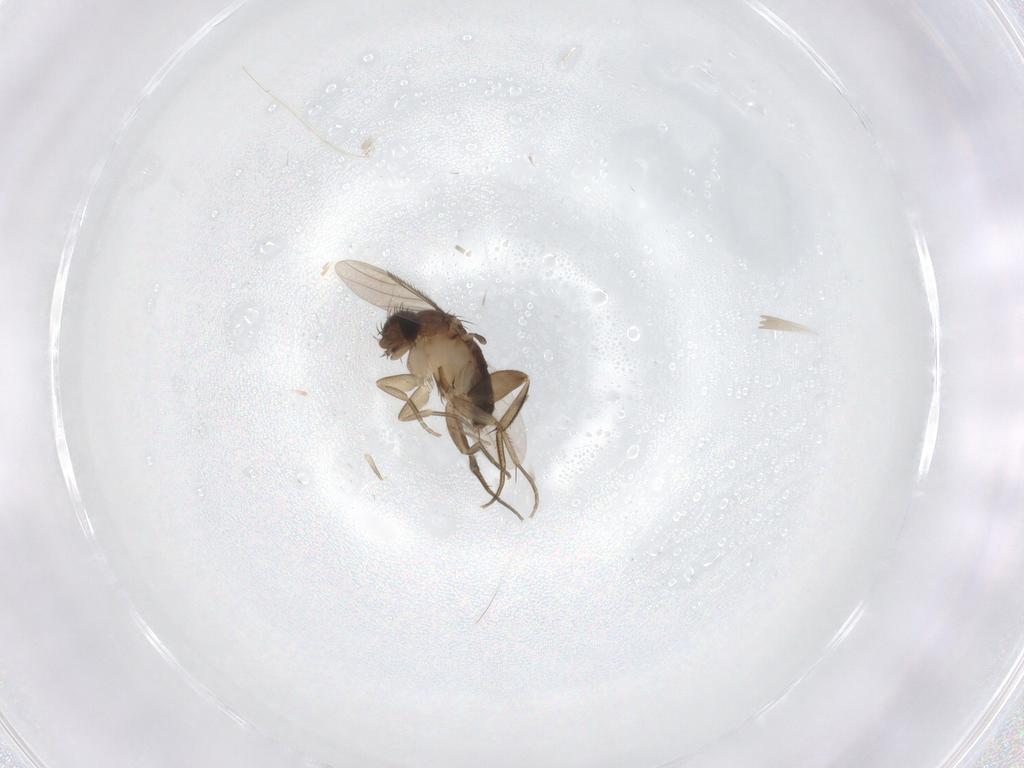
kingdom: Animalia
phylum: Arthropoda
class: Insecta
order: Diptera
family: Phoridae
